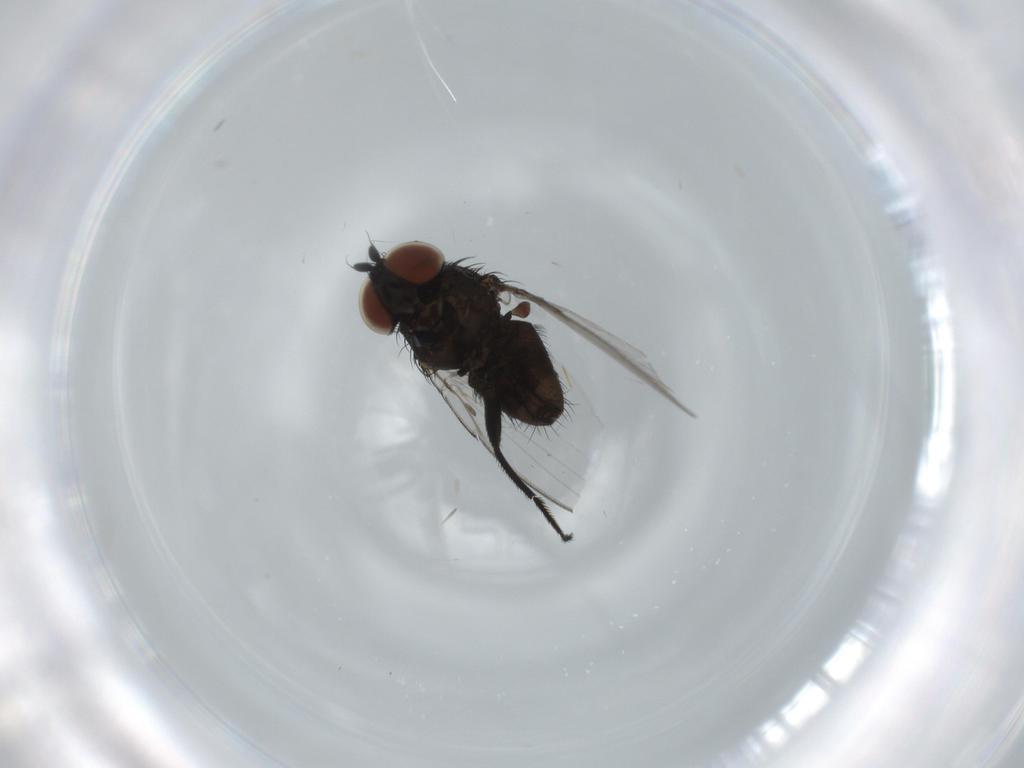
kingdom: Animalia
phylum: Arthropoda
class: Insecta
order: Diptera
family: Milichiidae
